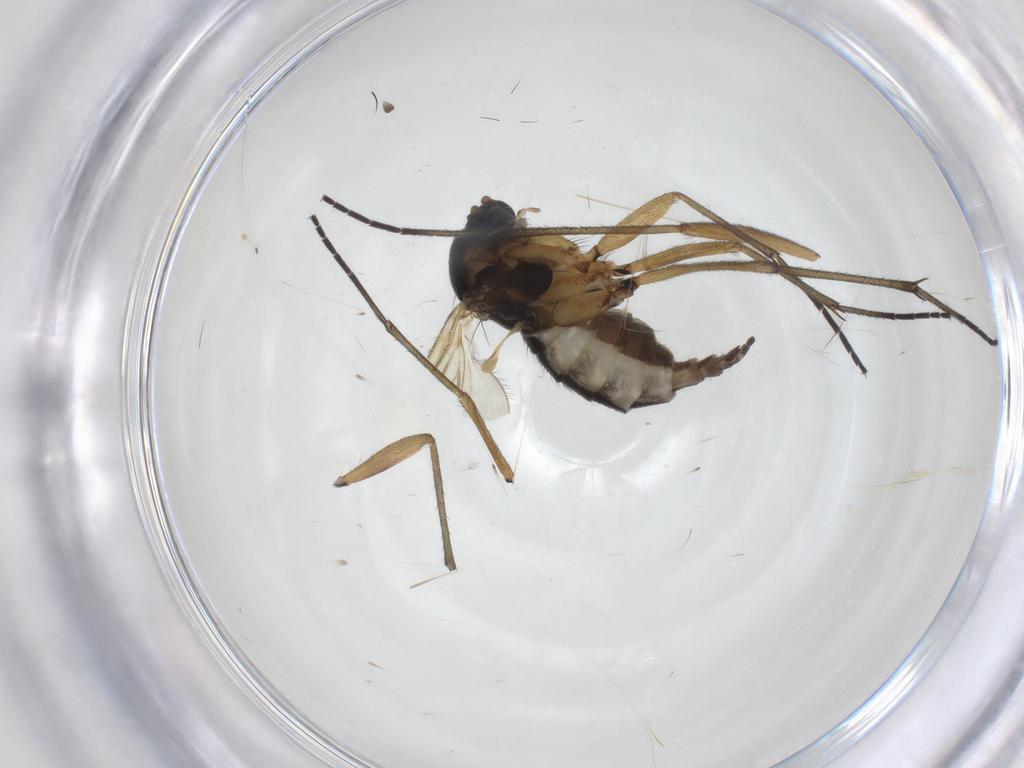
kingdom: Animalia
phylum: Arthropoda
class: Insecta
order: Diptera
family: Sciaridae
